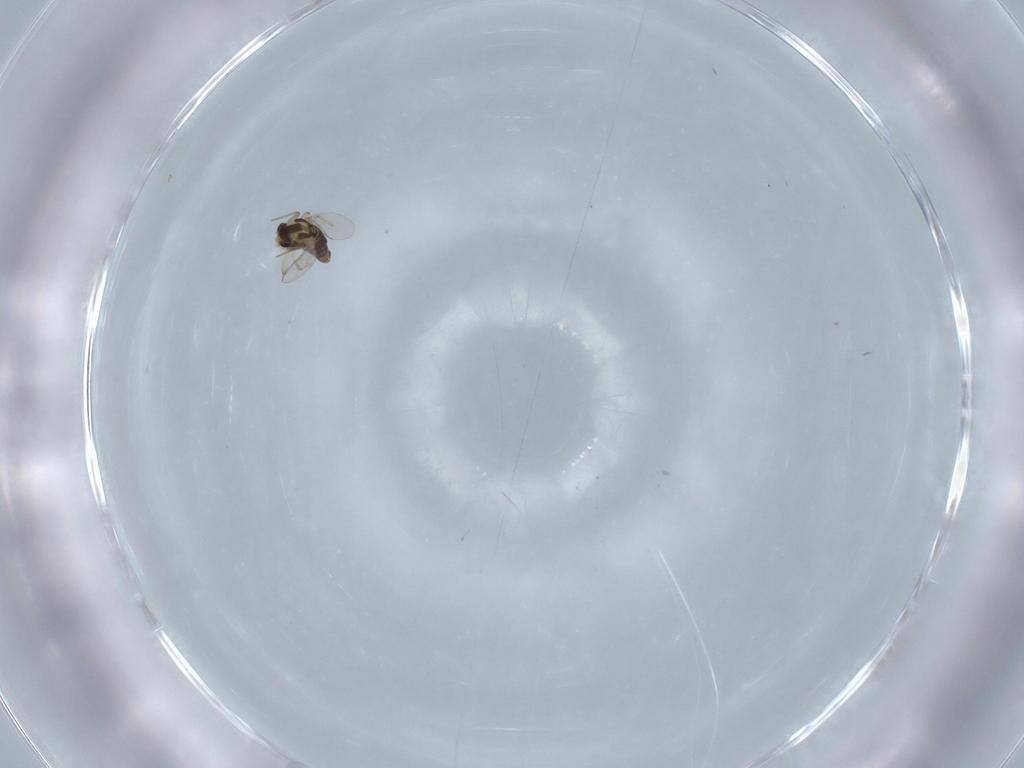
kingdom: Animalia
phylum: Arthropoda
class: Insecta
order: Diptera
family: Chironomidae
